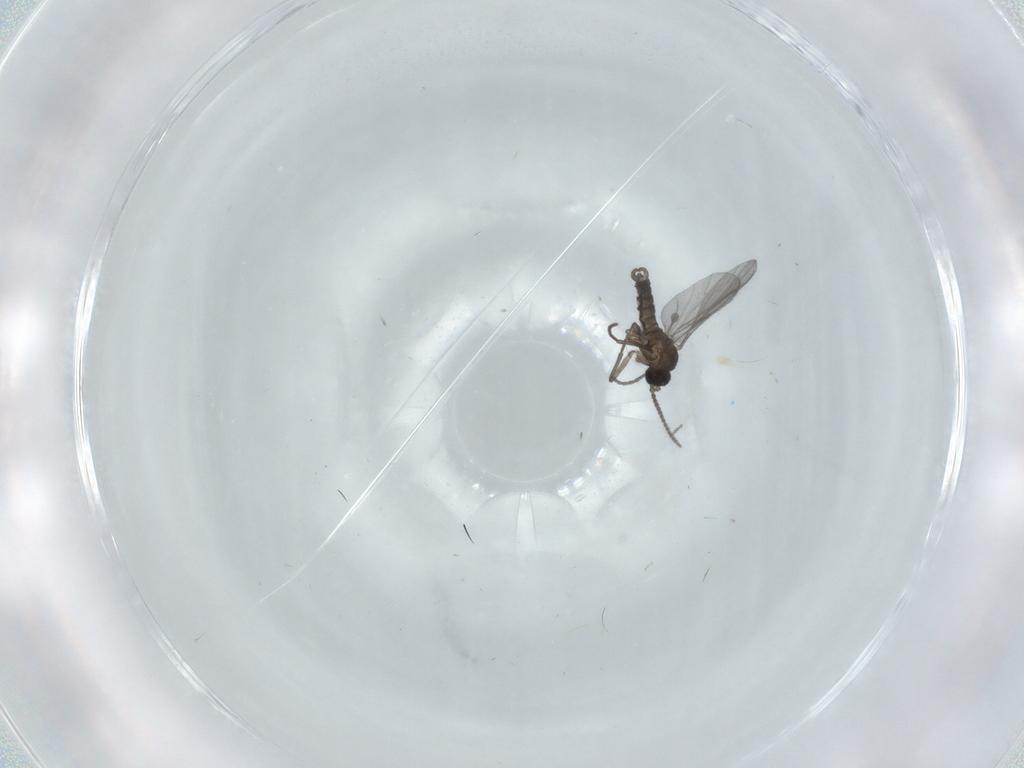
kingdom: Animalia
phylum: Arthropoda
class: Insecta
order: Diptera
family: Cecidomyiidae
